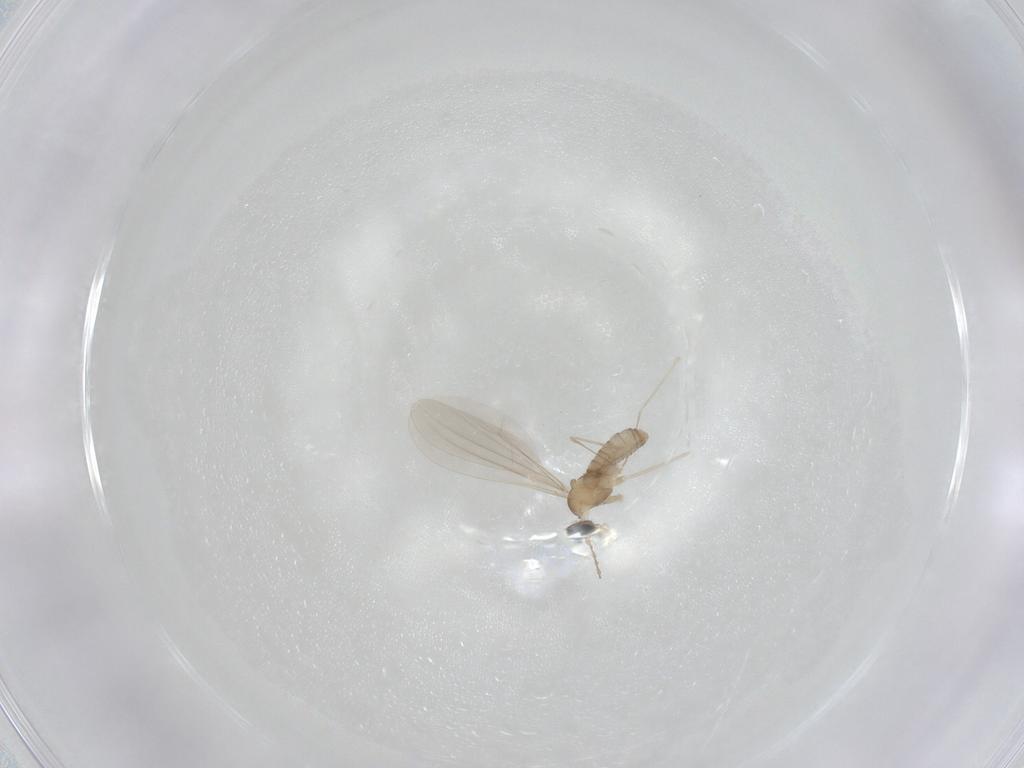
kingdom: Animalia
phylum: Arthropoda
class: Insecta
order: Diptera
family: Cecidomyiidae
